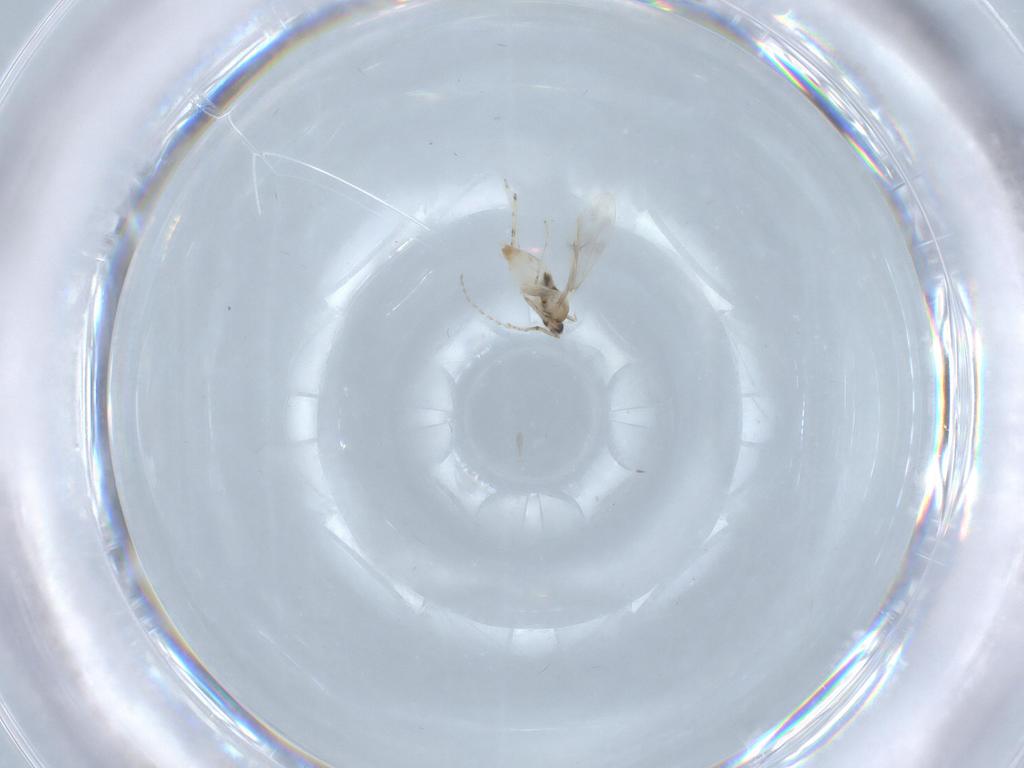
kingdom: Animalia
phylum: Arthropoda
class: Insecta
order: Diptera
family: Cecidomyiidae
